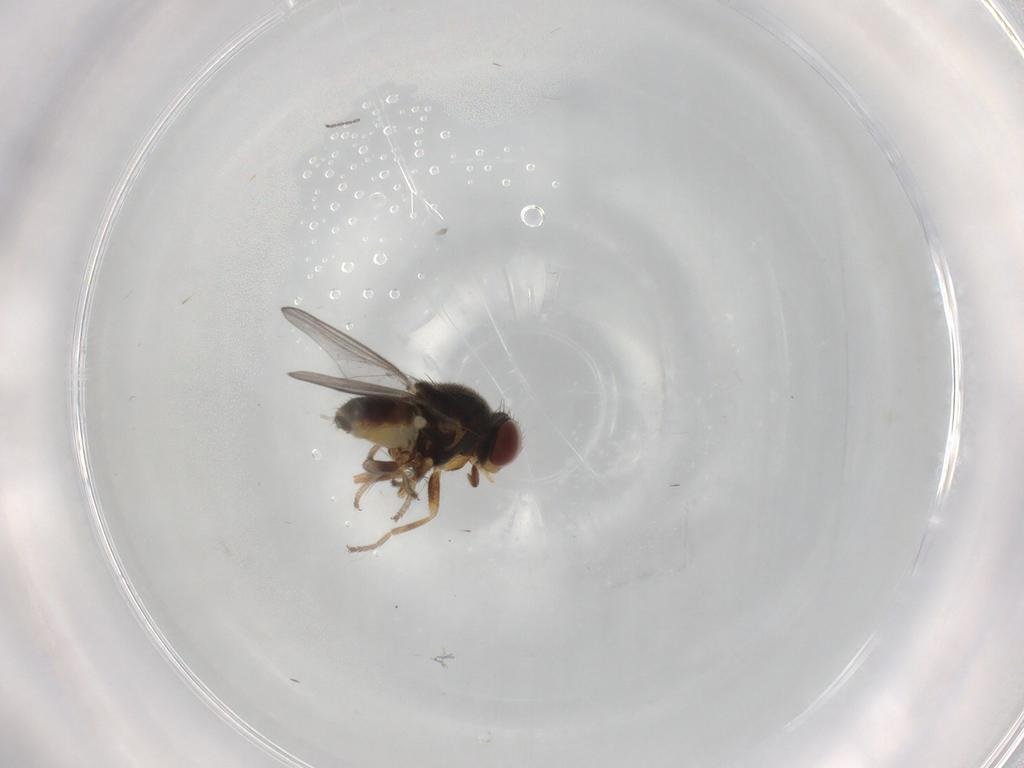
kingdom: Animalia
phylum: Arthropoda
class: Insecta
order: Diptera
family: Chloropidae
